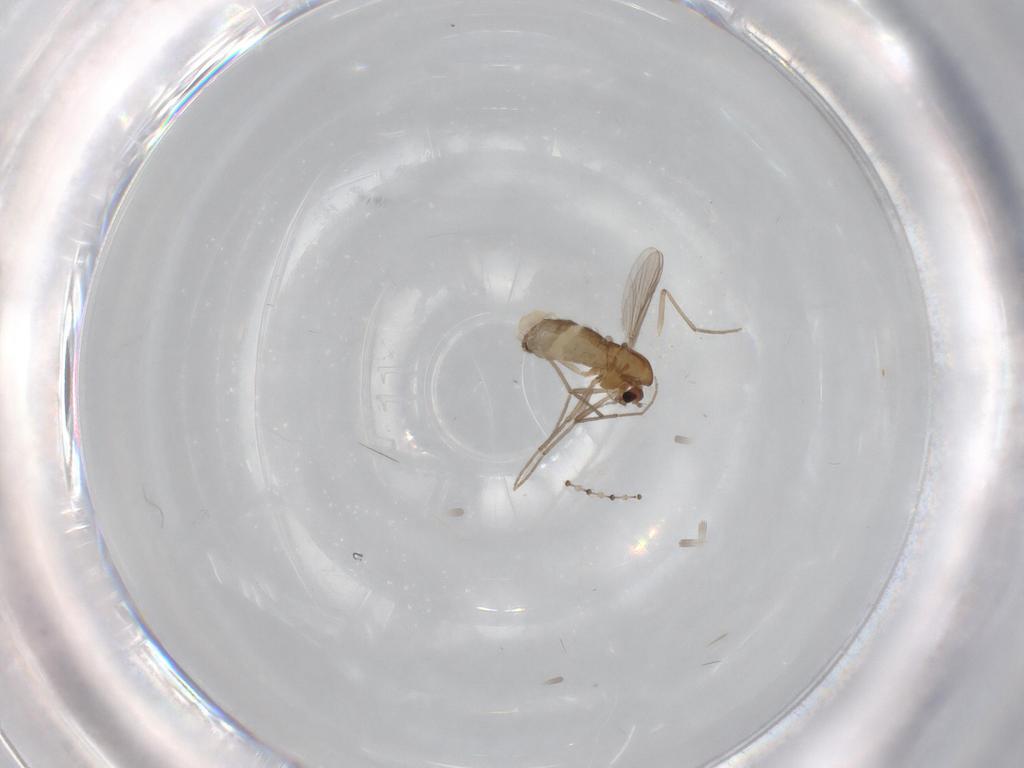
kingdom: Animalia
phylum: Arthropoda
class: Insecta
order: Diptera
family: Chironomidae
